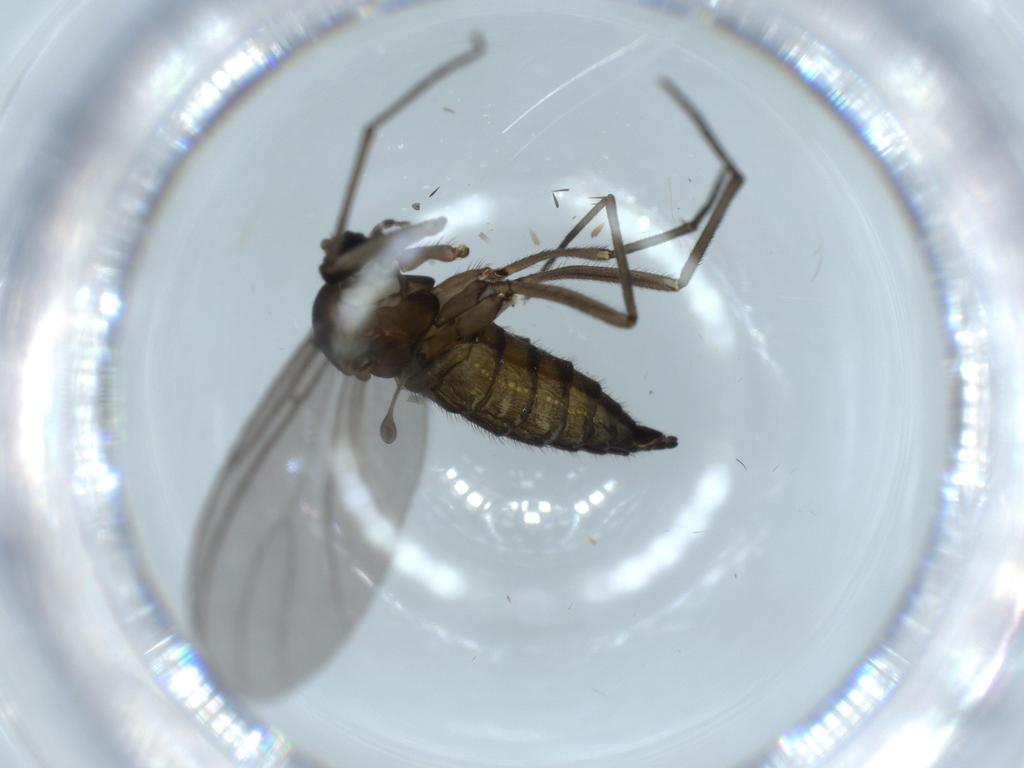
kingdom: Animalia
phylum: Arthropoda
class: Insecta
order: Diptera
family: Sciaridae
